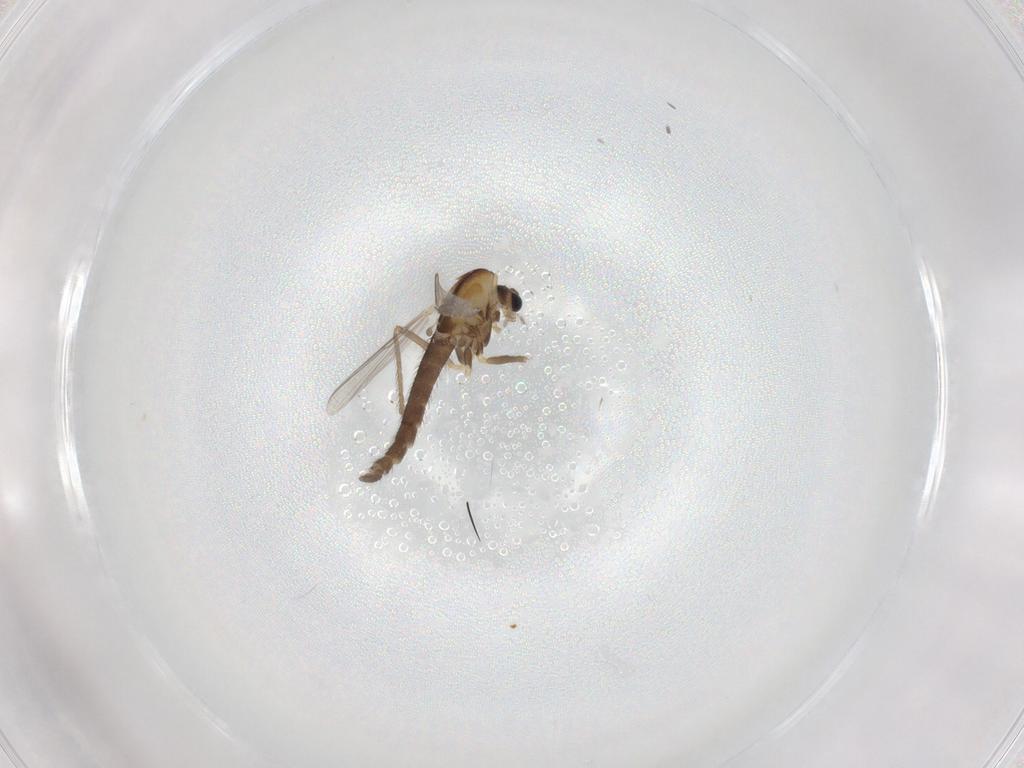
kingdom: Animalia
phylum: Arthropoda
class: Insecta
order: Diptera
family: Chironomidae
